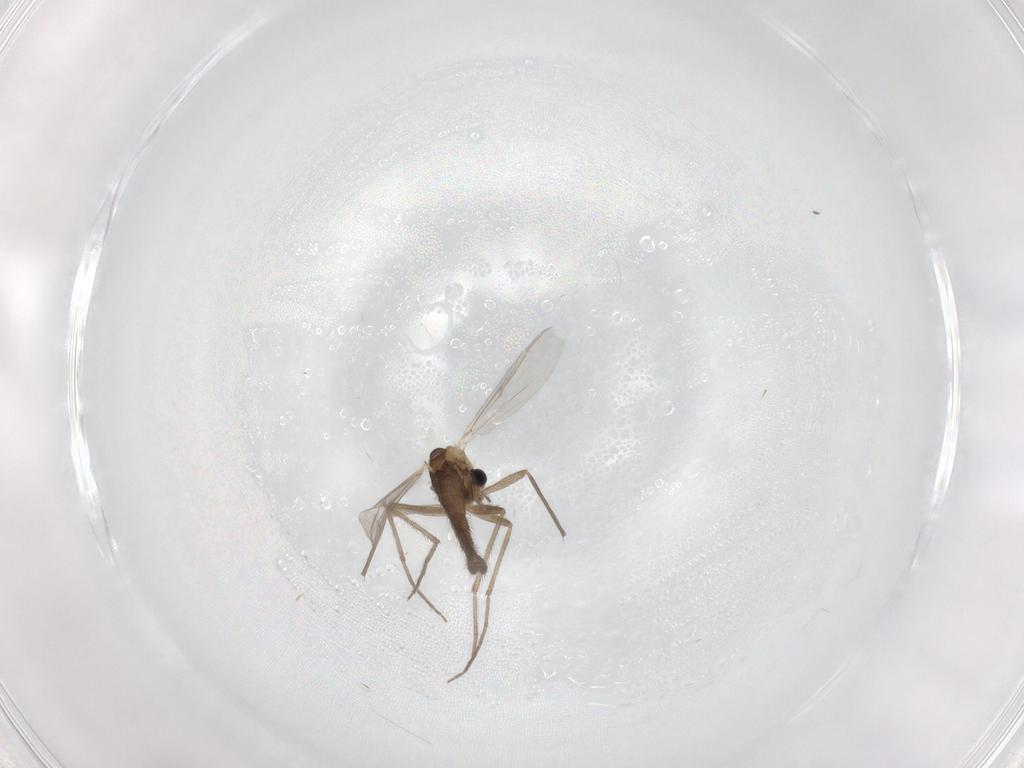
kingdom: Animalia
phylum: Arthropoda
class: Insecta
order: Diptera
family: Chironomidae
